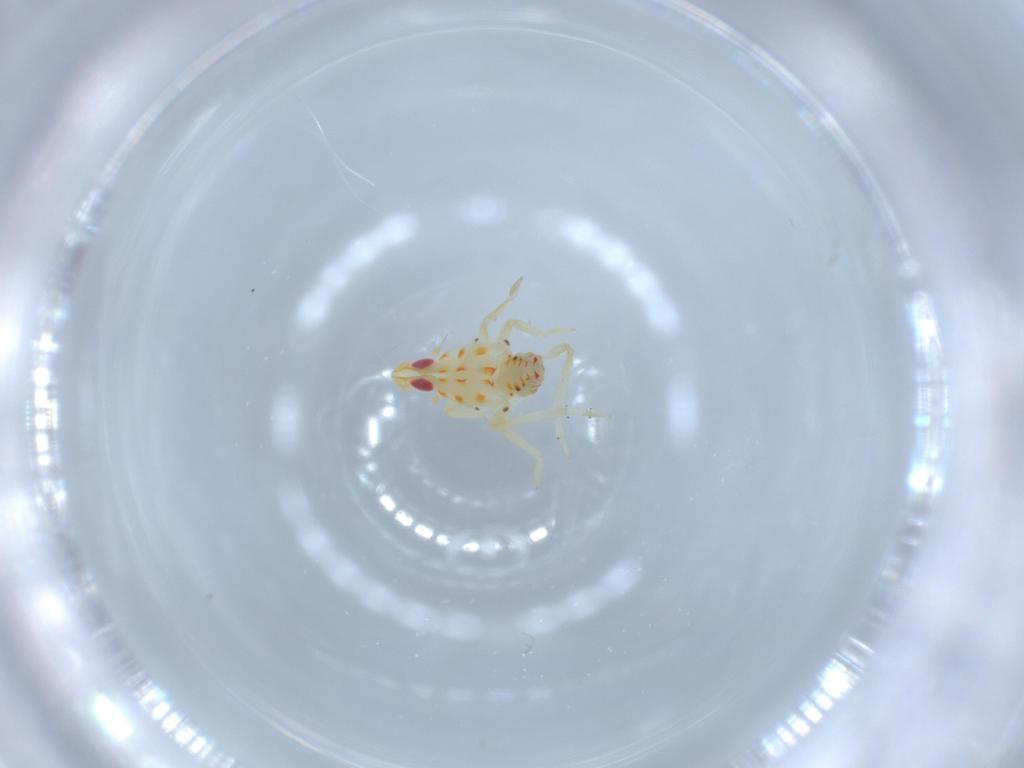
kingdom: Animalia
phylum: Arthropoda
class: Insecta
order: Hemiptera
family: Tropiduchidae
